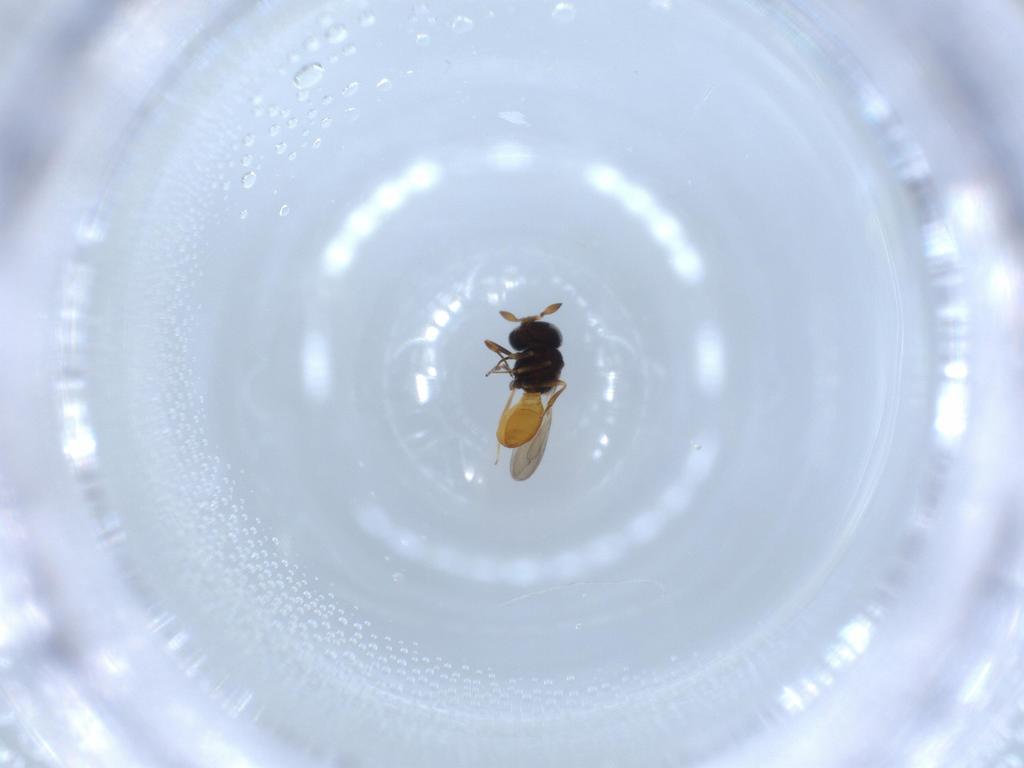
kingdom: Animalia
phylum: Arthropoda
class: Insecta
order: Hymenoptera
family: Scelionidae
